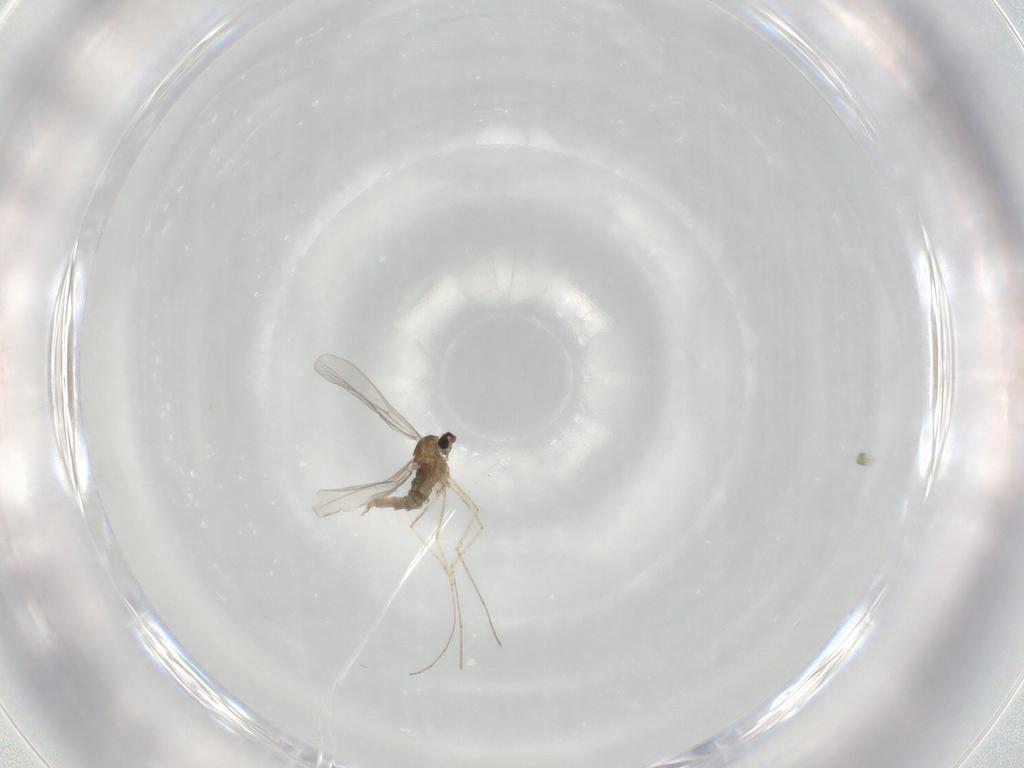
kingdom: Animalia
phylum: Arthropoda
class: Insecta
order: Diptera
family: Cecidomyiidae
